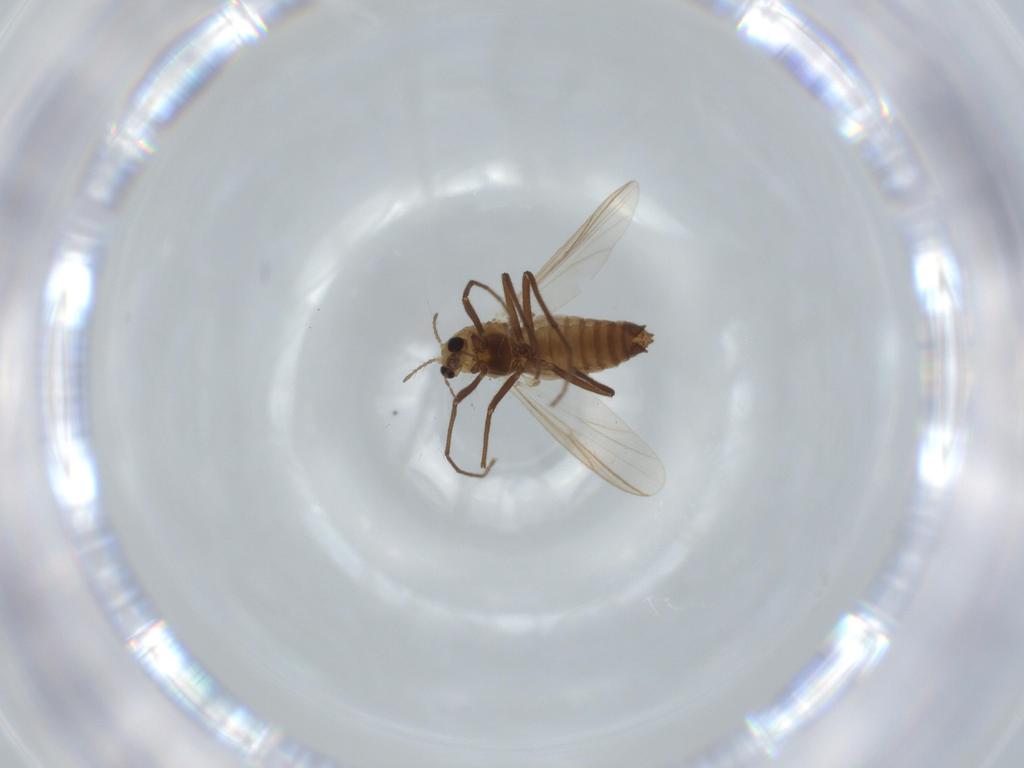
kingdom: Animalia
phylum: Arthropoda
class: Insecta
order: Diptera
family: Chironomidae
